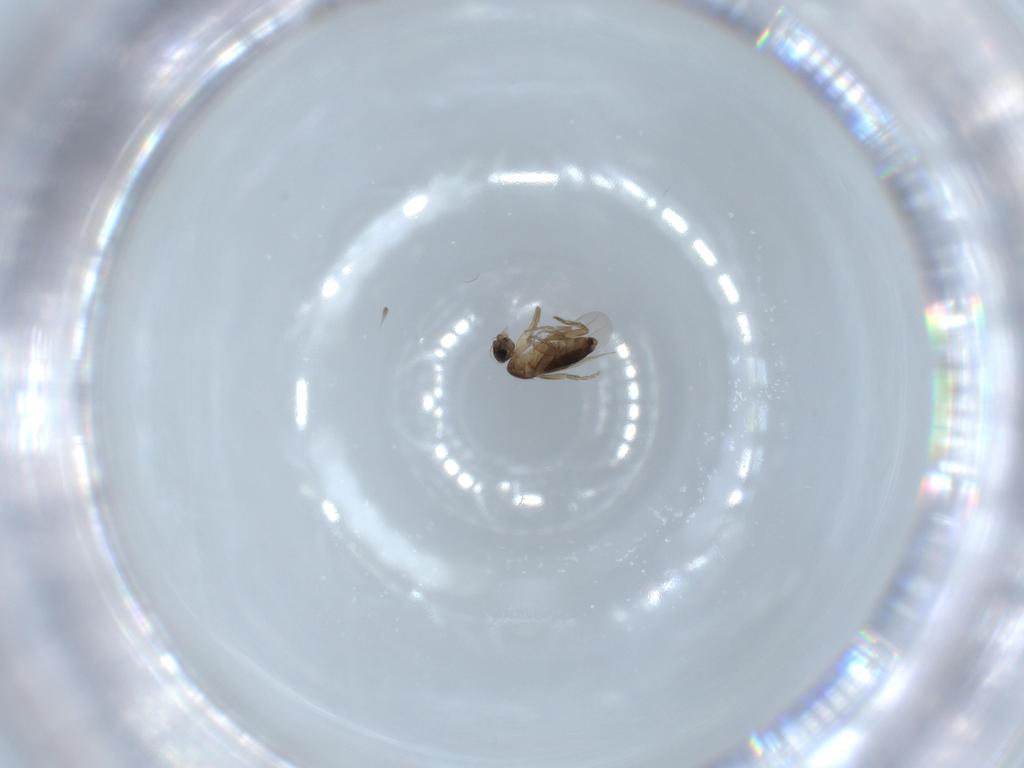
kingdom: Animalia
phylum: Arthropoda
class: Insecta
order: Diptera
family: Phoridae
